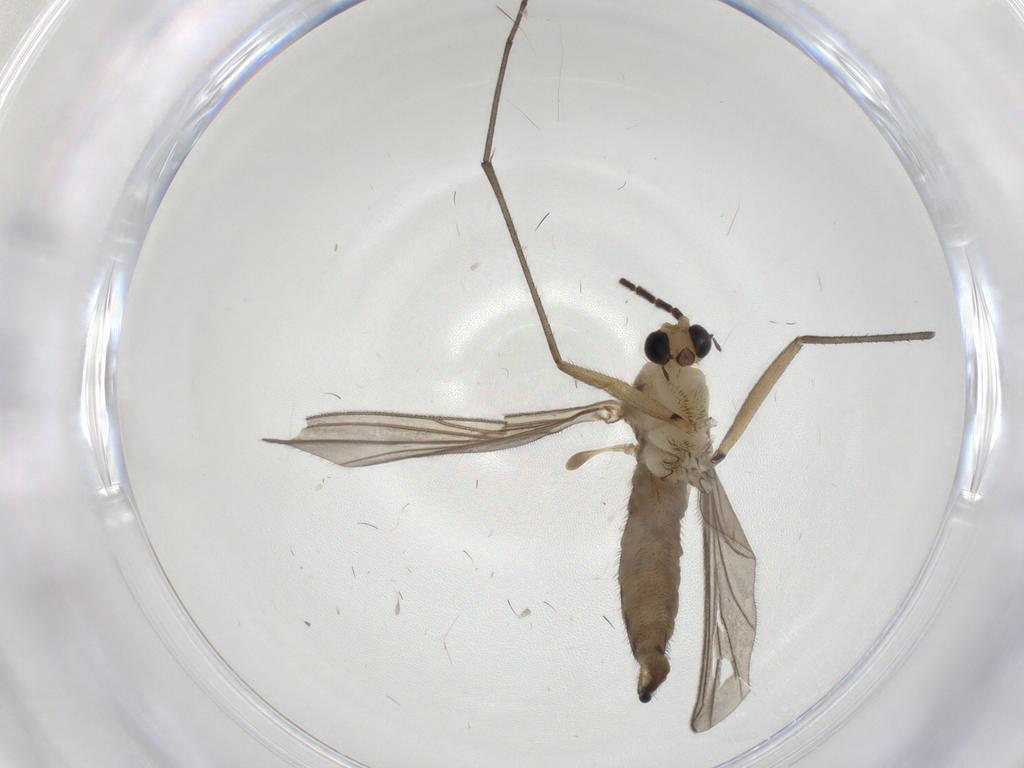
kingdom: Animalia
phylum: Arthropoda
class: Insecta
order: Diptera
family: Sciaridae
